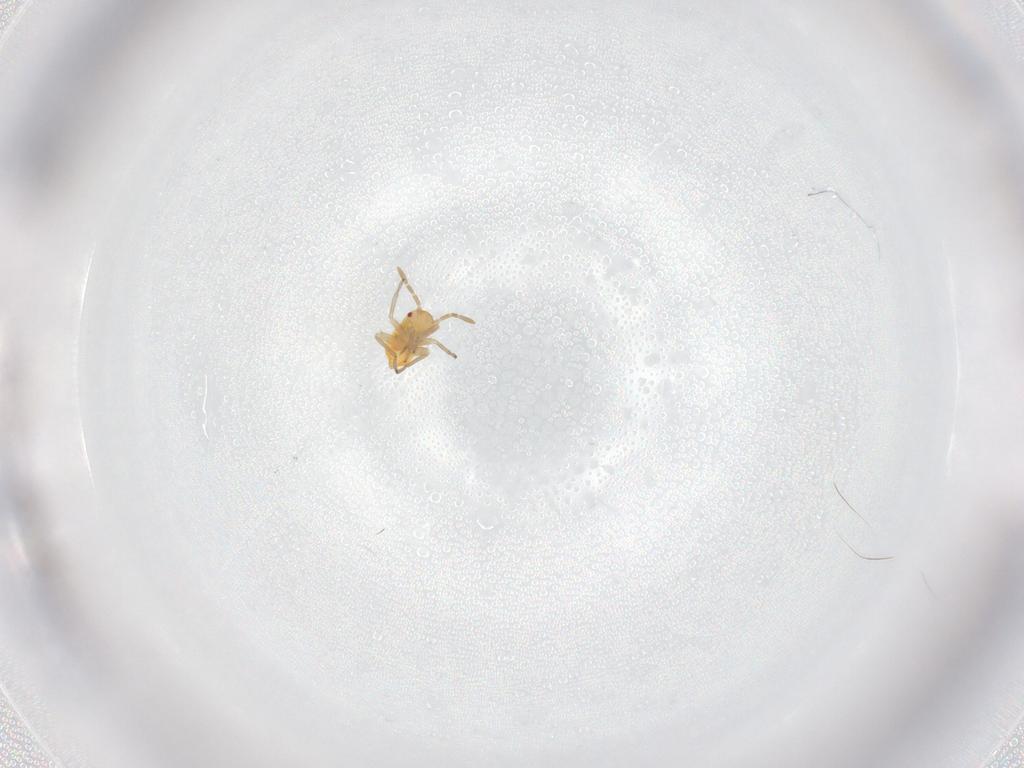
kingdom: Animalia
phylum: Arthropoda
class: Insecta
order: Hemiptera
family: Miridae
